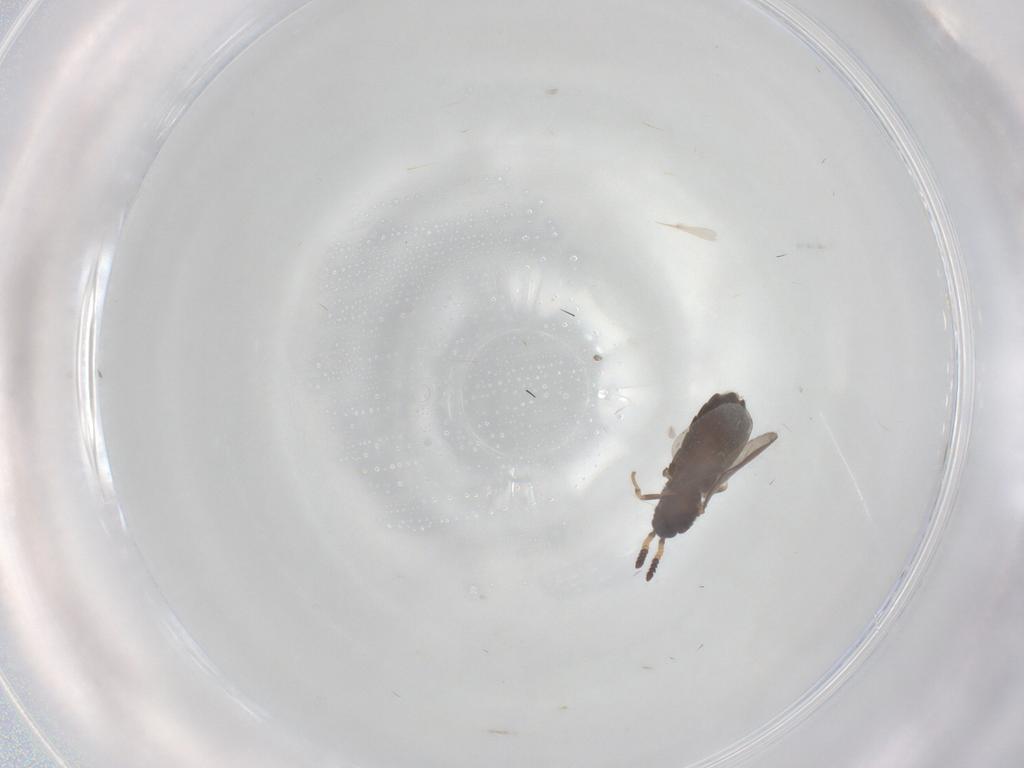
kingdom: Animalia
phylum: Arthropoda
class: Insecta
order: Diptera
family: Scatopsidae
